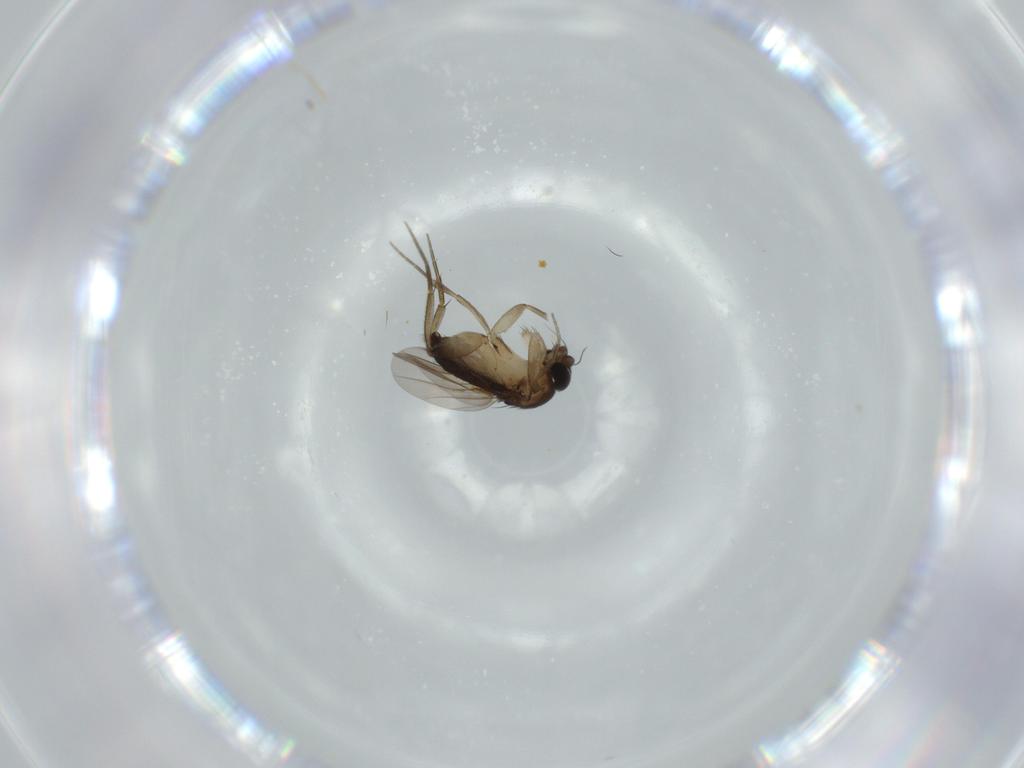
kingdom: Animalia
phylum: Arthropoda
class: Insecta
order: Diptera
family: Phoridae
